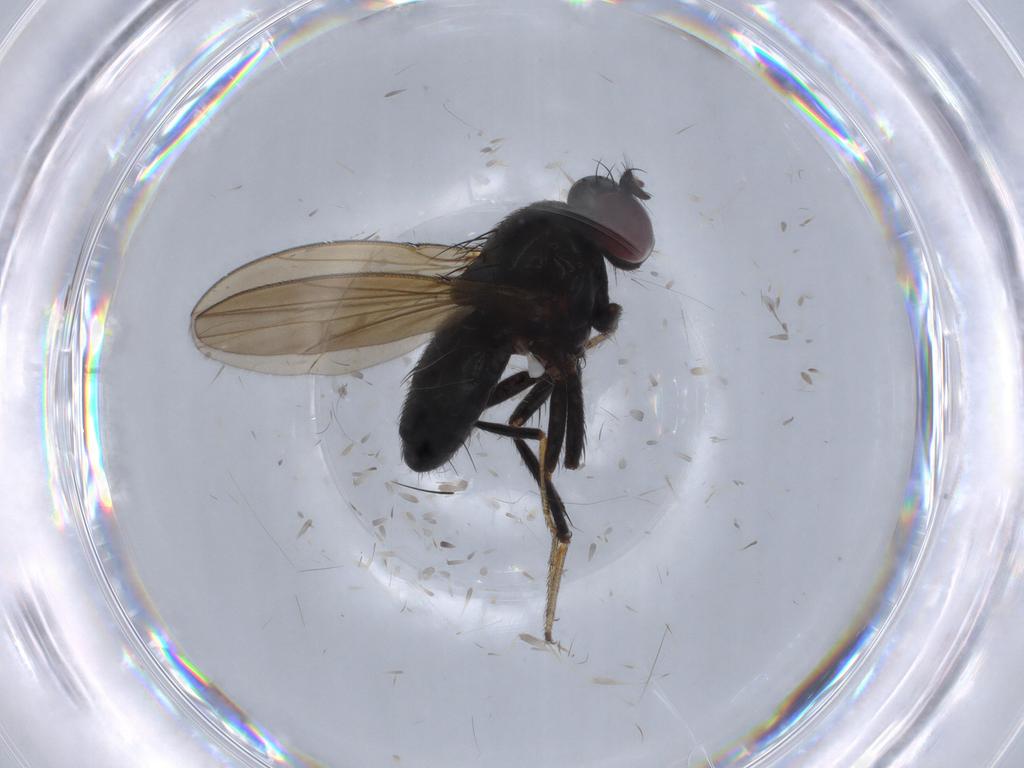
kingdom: Animalia
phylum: Arthropoda
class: Insecta
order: Diptera
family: Ephydridae
